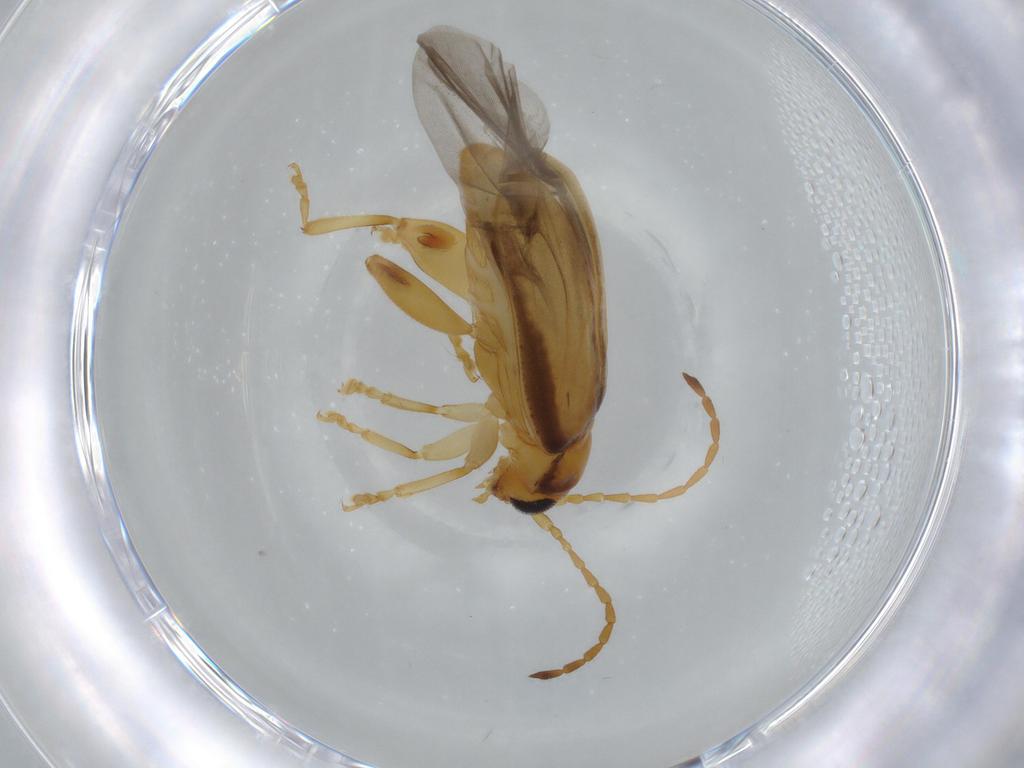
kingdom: Animalia
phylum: Arthropoda
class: Insecta
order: Coleoptera
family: Chrysomelidae
